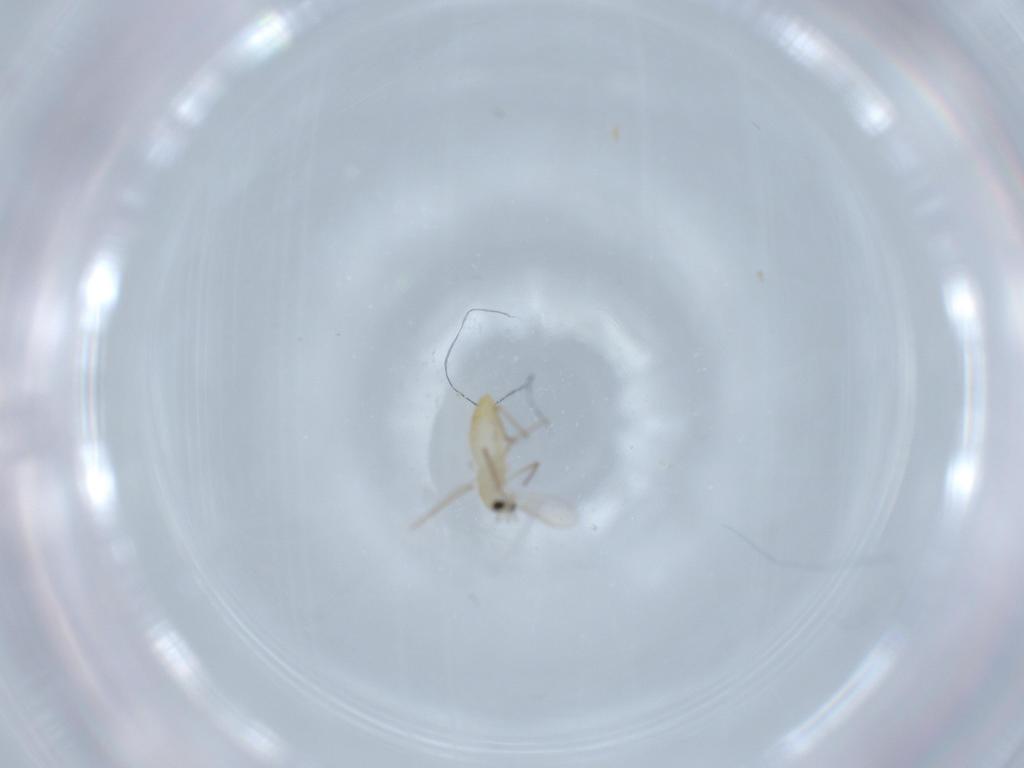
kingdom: Animalia
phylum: Arthropoda
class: Insecta
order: Diptera
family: Chironomidae
